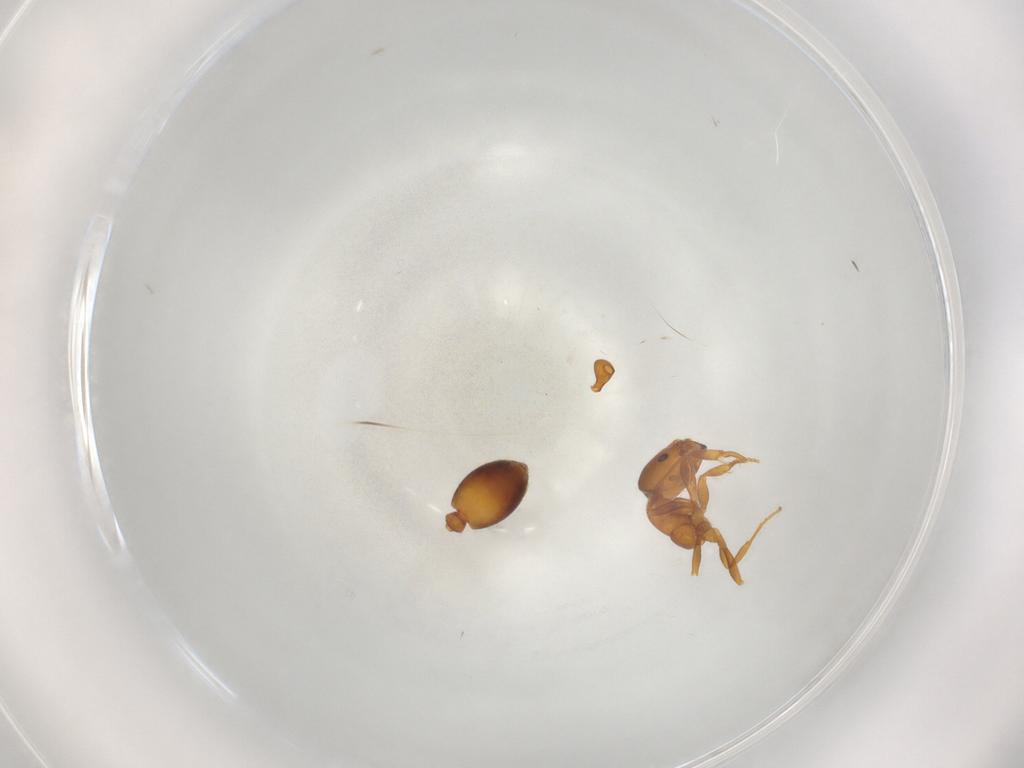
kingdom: Animalia
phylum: Arthropoda
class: Insecta
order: Hymenoptera
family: Formicidae
